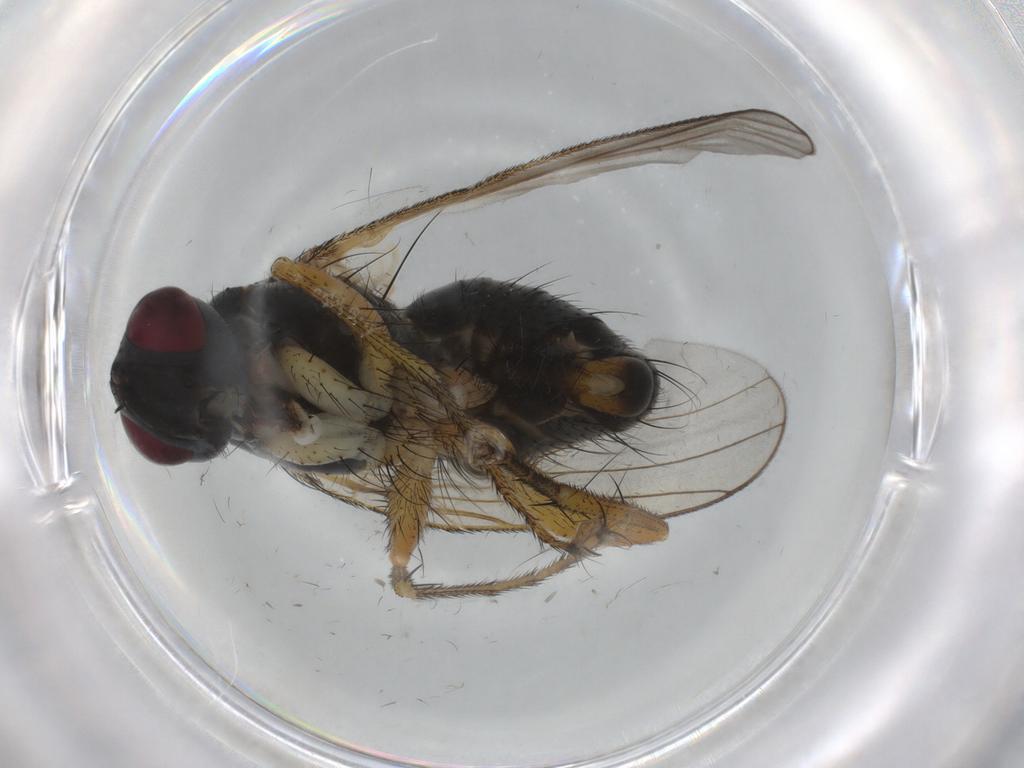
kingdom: Animalia
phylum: Arthropoda
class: Insecta
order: Diptera
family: Muscidae
